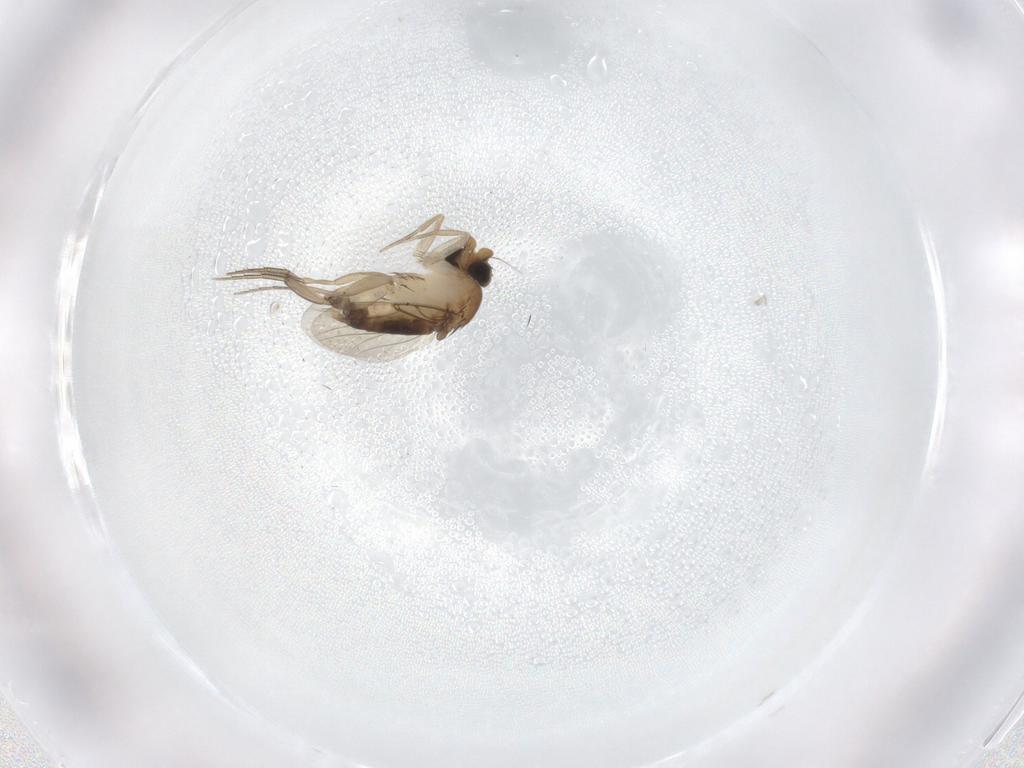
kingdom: Animalia
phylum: Arthropoda
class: Insecta
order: Diptera
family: Phoridae
